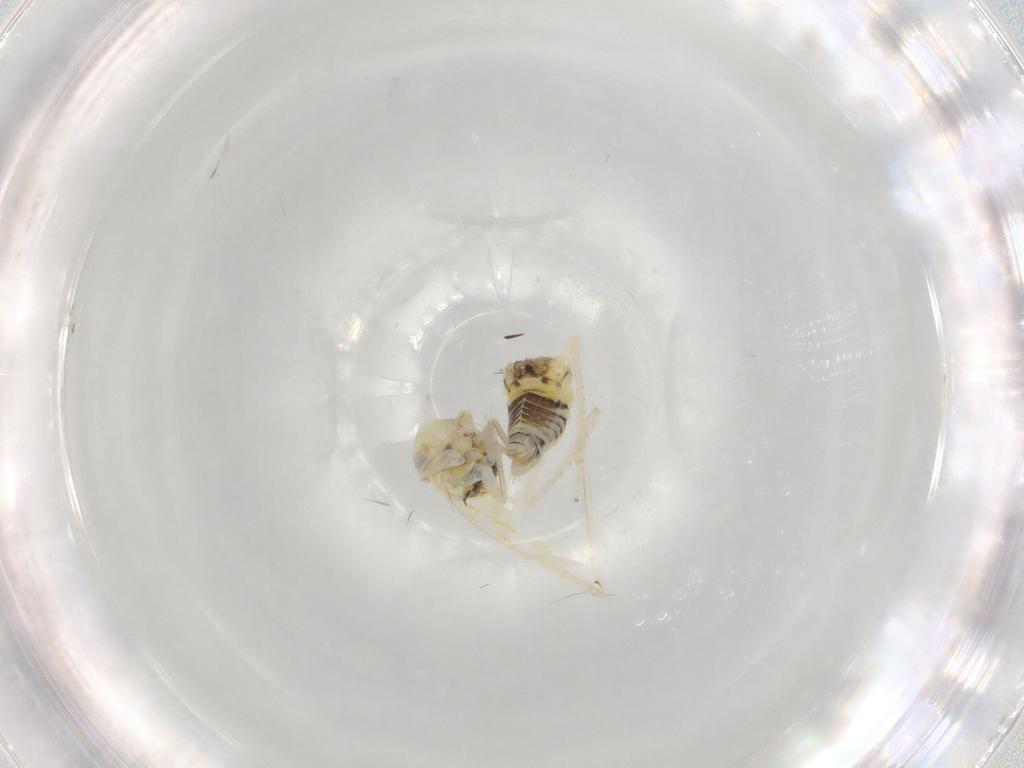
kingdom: Animalia
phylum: Arthropoda
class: Insecta
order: Hemiptera
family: Cicadellidae
